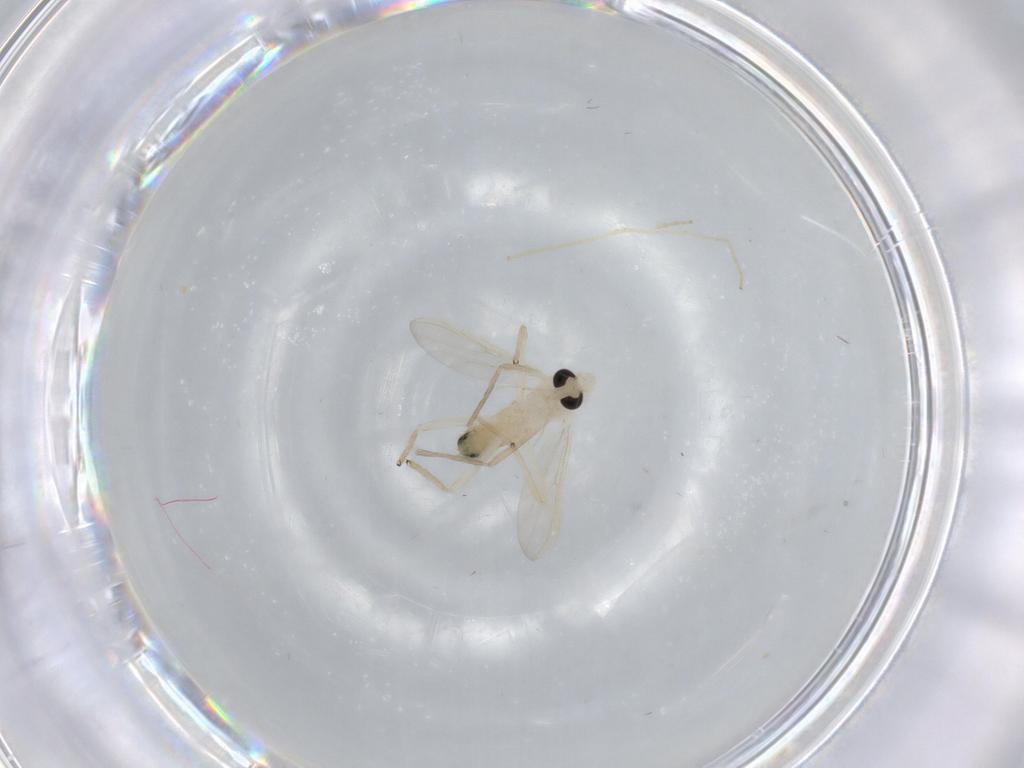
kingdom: Animalia
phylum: Arthropoda
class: Insecta
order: Diptera
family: Chironomidae
